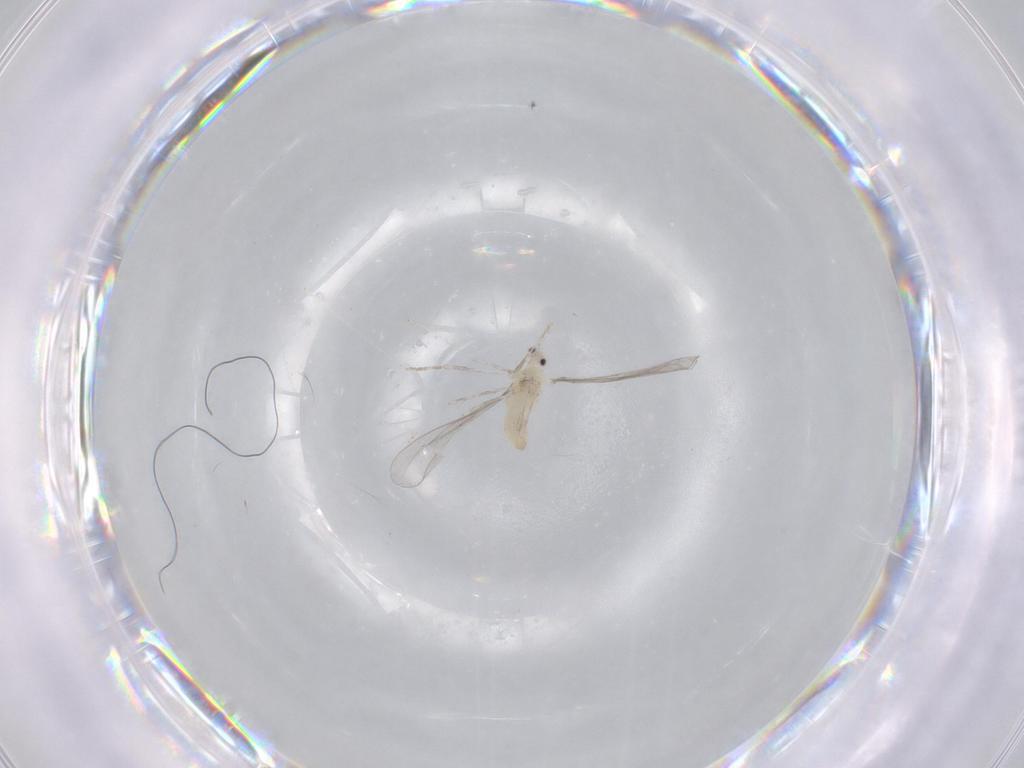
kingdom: Animalia
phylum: Arthropoda
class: Insecta
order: Diptera
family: Cecidomyiidae
